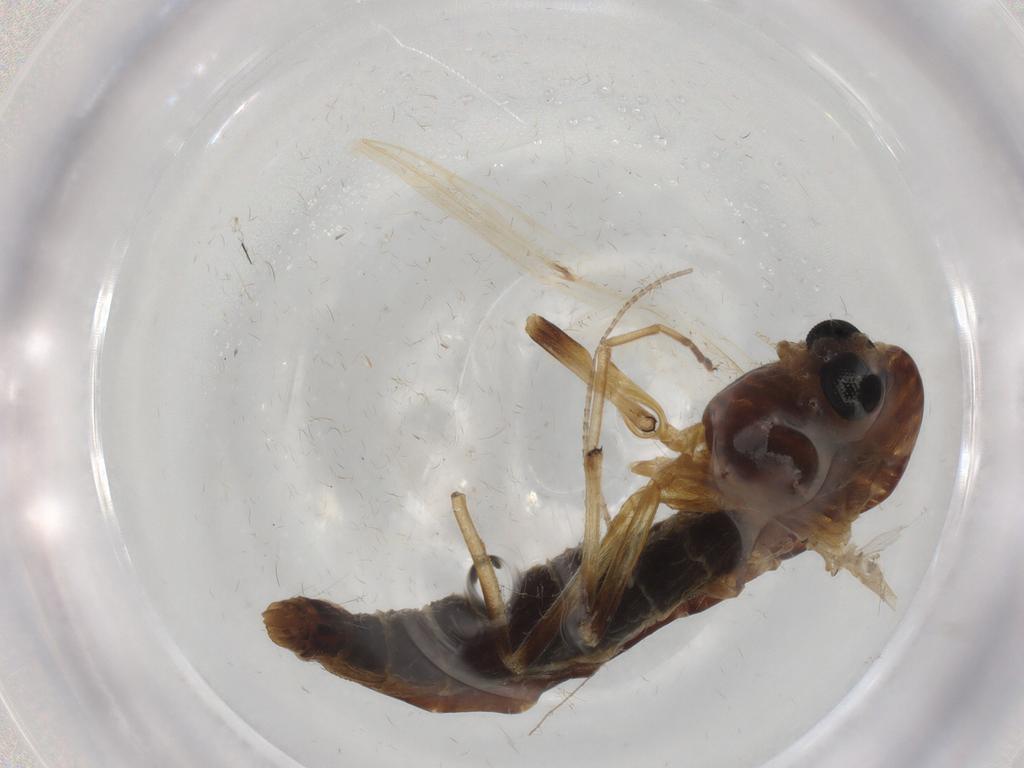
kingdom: Animalia
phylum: Arthropoda
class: Insecta
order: Diptera
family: Chironomidae
